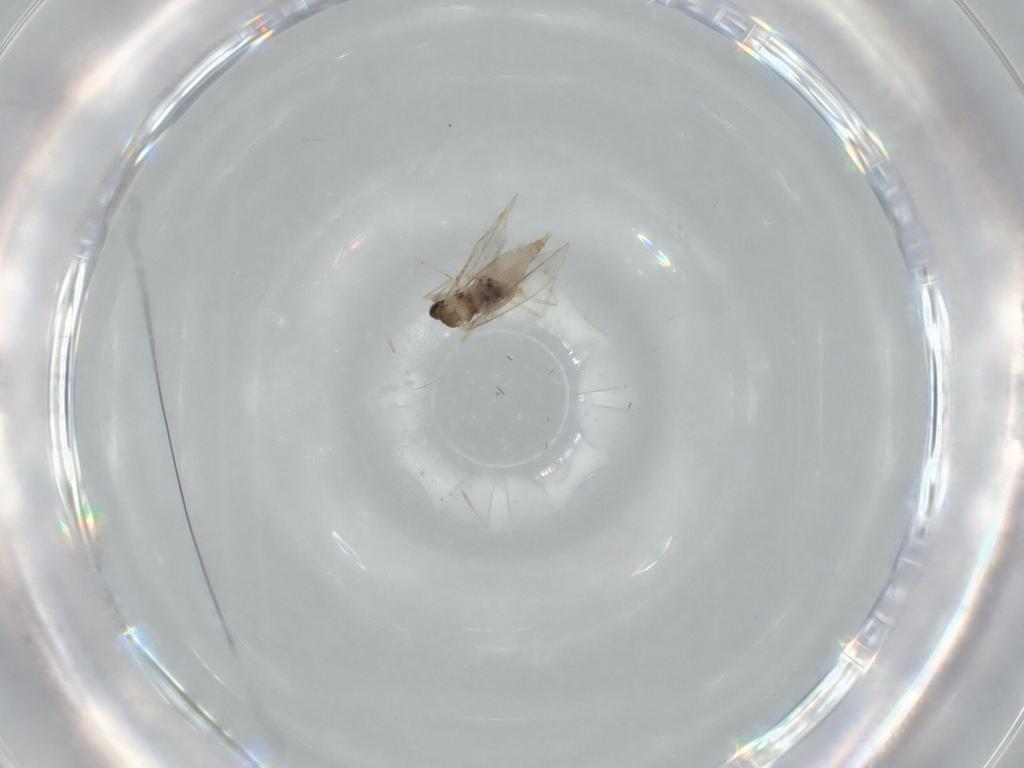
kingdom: Animalia
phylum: Arthropoda
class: Insecta
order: Diptera
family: Cecidomyiidae
